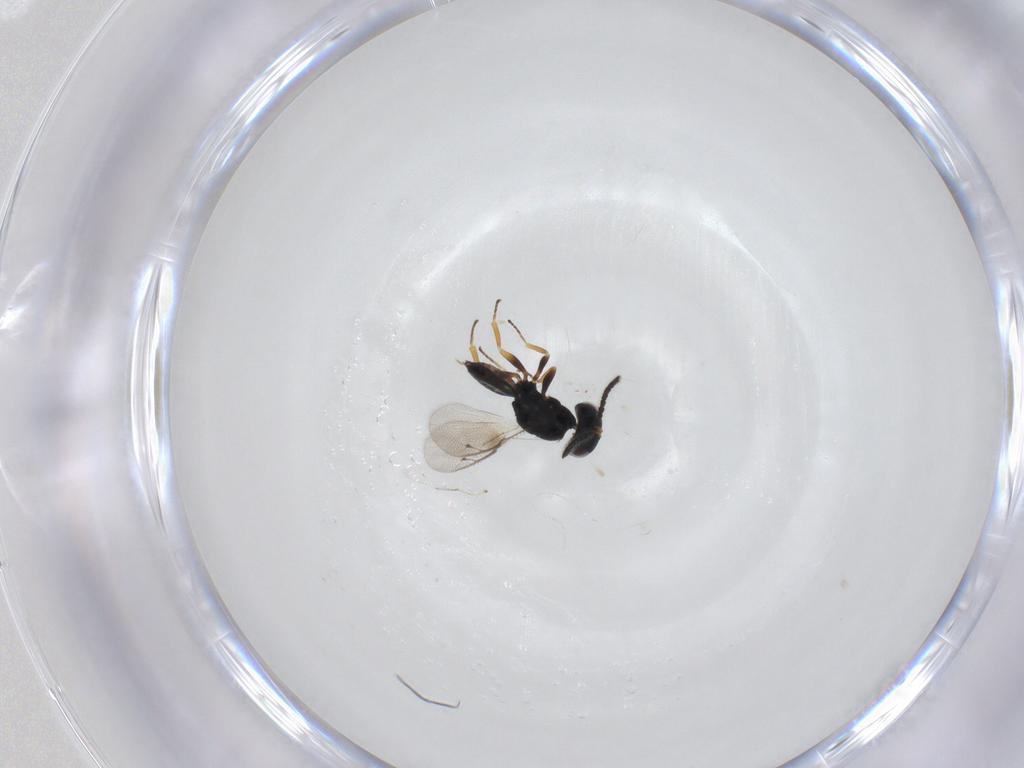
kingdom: Animalia
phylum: Arthropoda
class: Insecta
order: Hymenoptera
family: Pteromalidae
